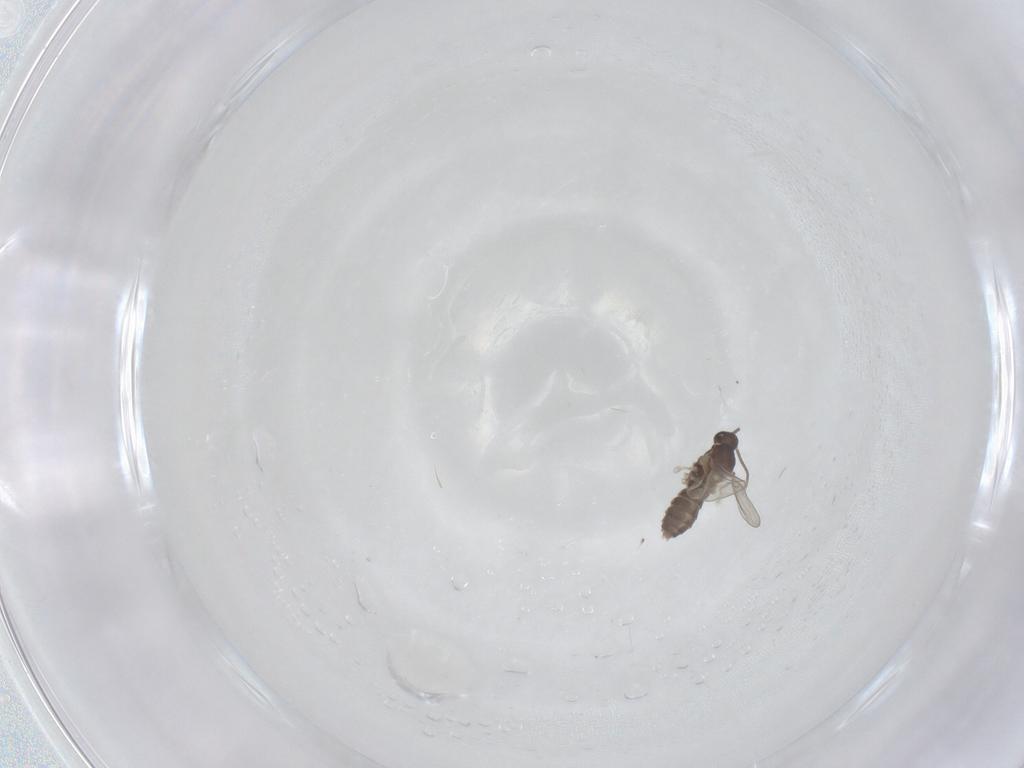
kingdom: Animalia
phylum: Arthropoda
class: Insecta
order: Diptera
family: Cecidomyiidae
